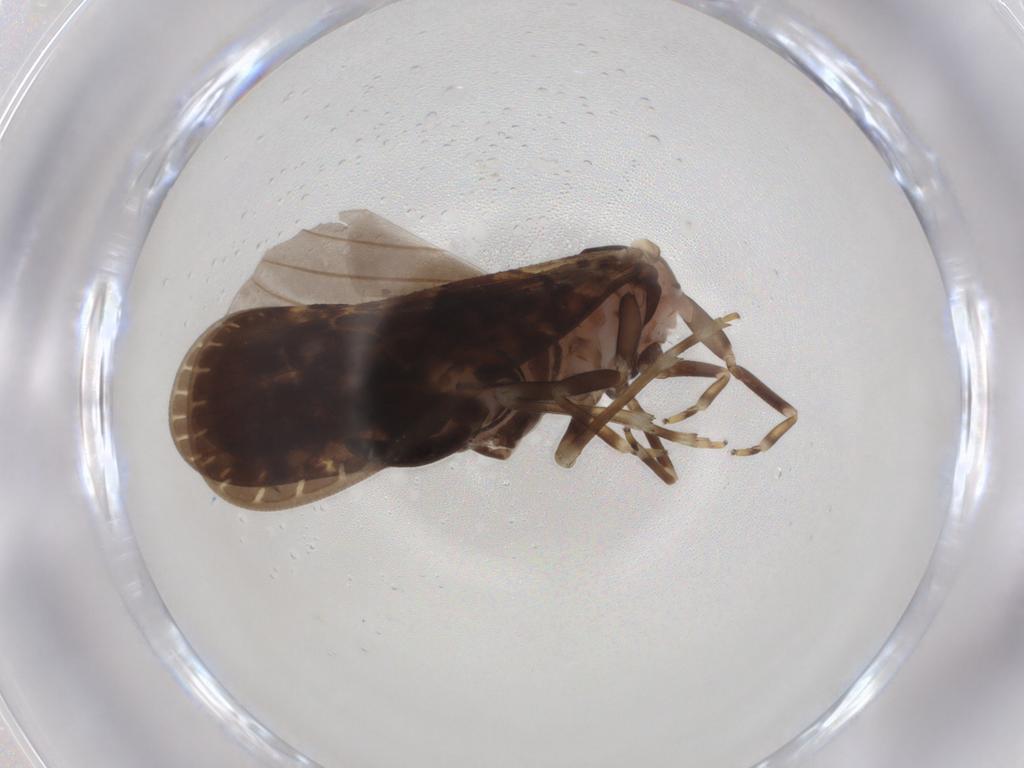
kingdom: Animalia
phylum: Arthropoda
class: Insecta
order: Hemiptera
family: Cixiidae
